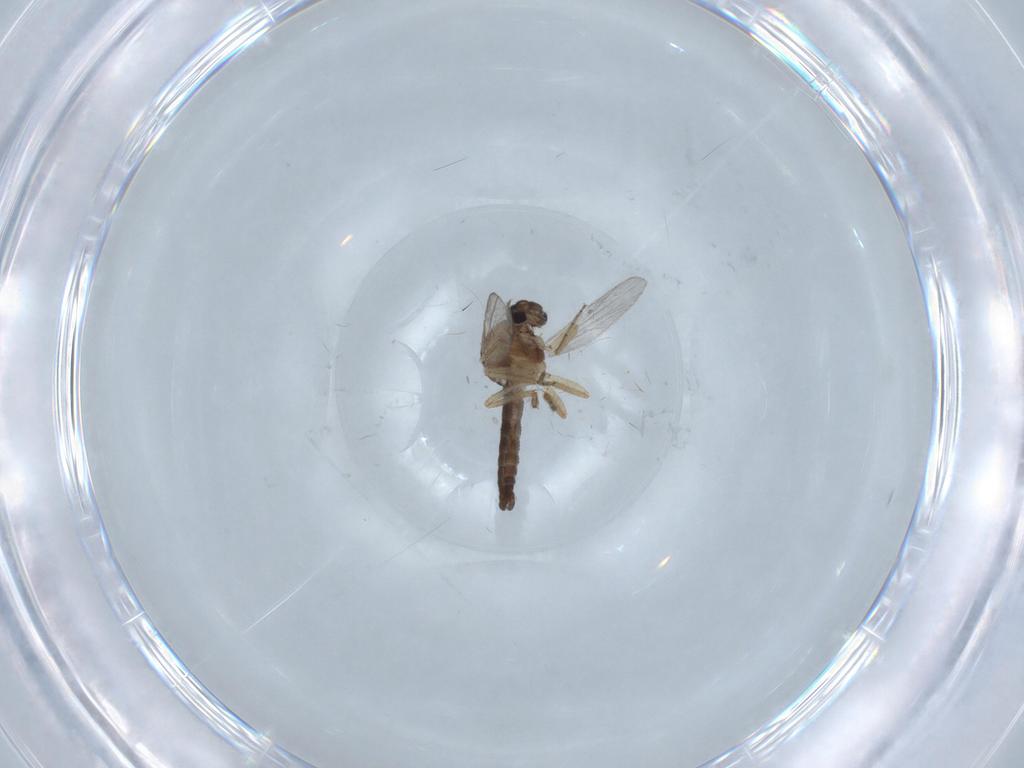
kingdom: Animalia
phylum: Arthropoda
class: Insecta
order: Diptera
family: Ceratopogonidae
